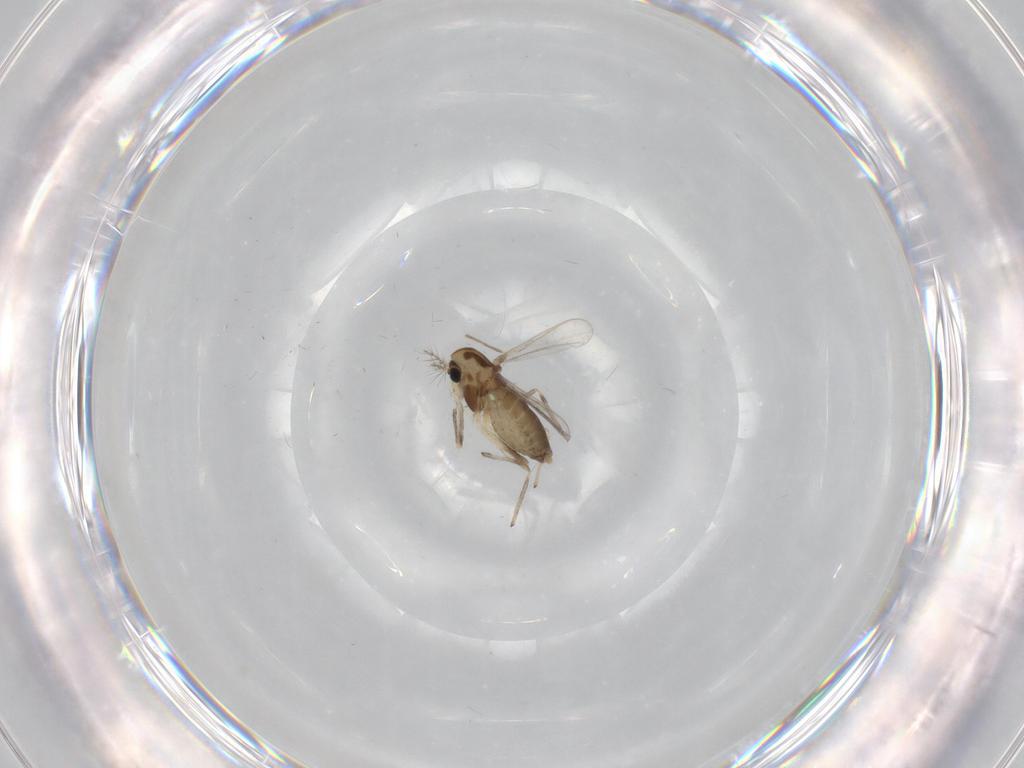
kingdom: Animalia
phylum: Arthropoda
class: Insecta
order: Diptera
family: Chironomidae
